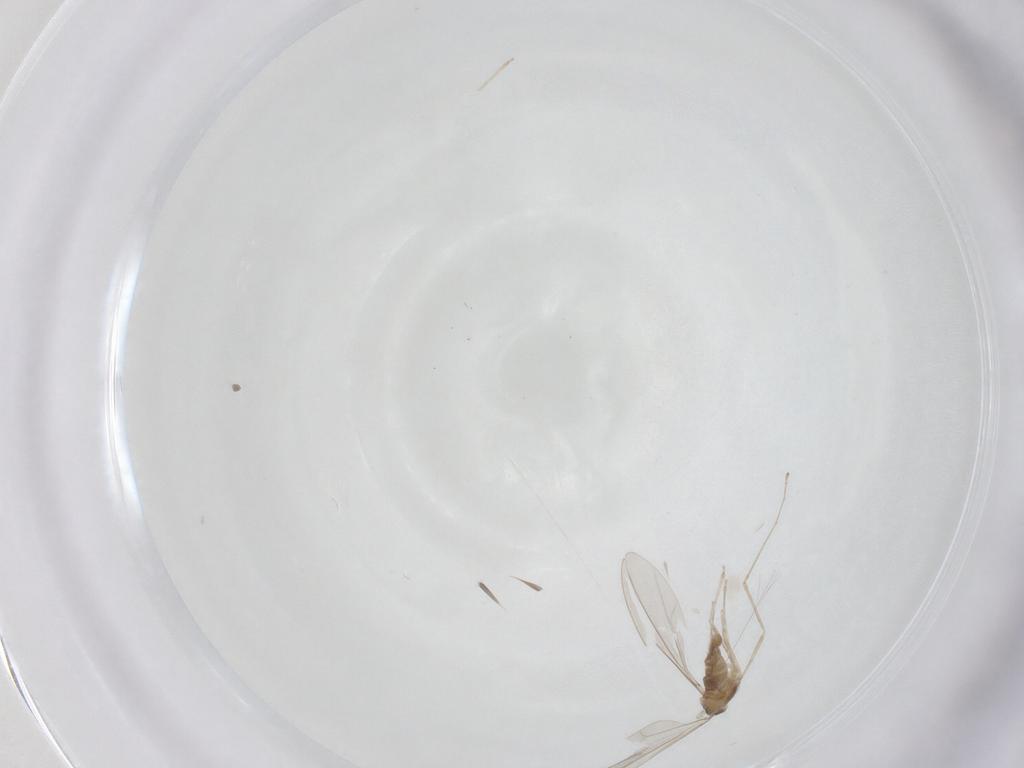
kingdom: Animalia
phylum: Arthropoda
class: Insecta
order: Diptera
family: Cecidomyiidae
